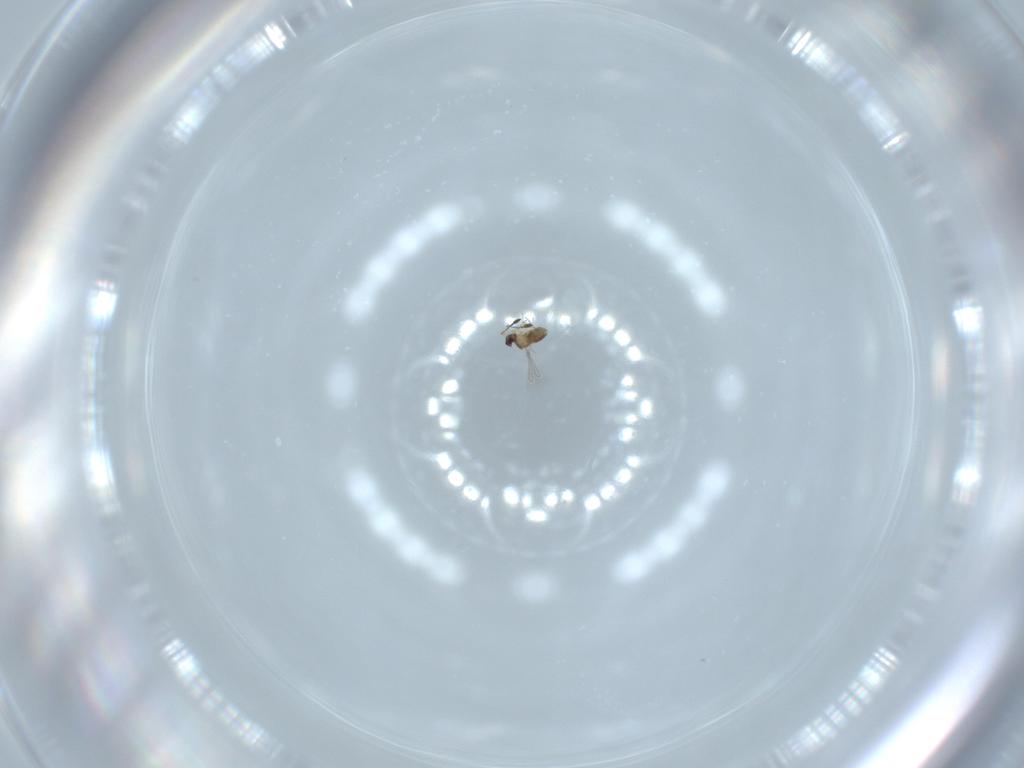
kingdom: Animalia
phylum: Arthropoda
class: Insecta
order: Hymenoptera
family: Mymaridae
